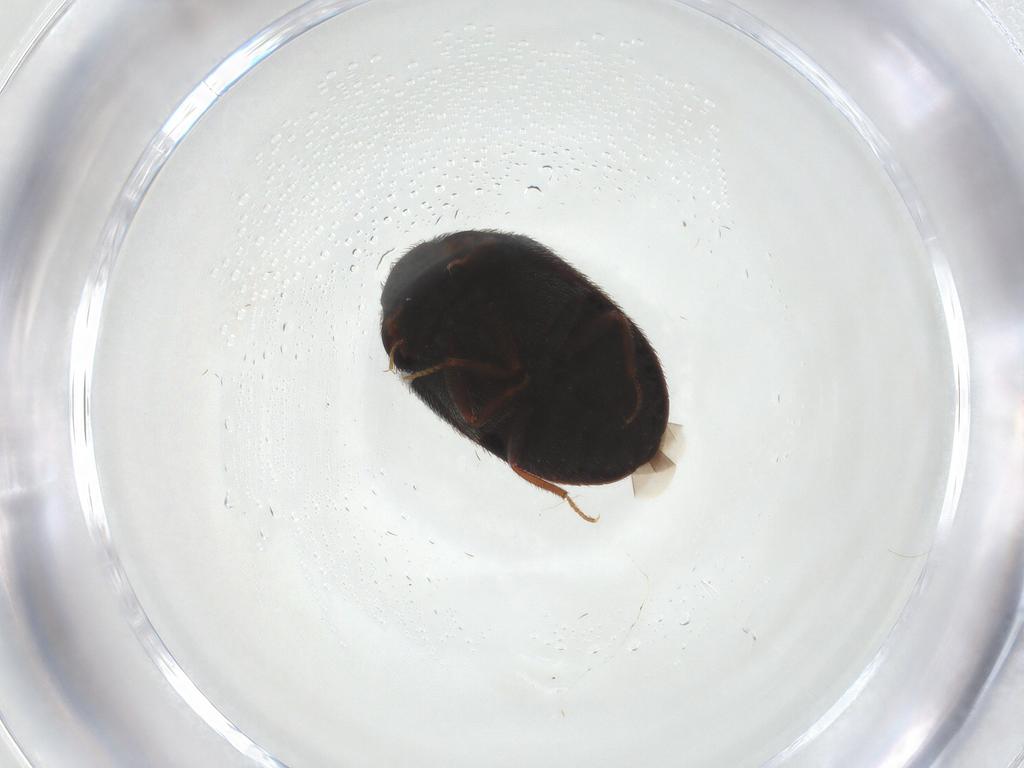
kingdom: Animalia
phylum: Arthropoda
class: Insecta
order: Coleoptera
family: Dermestidae
